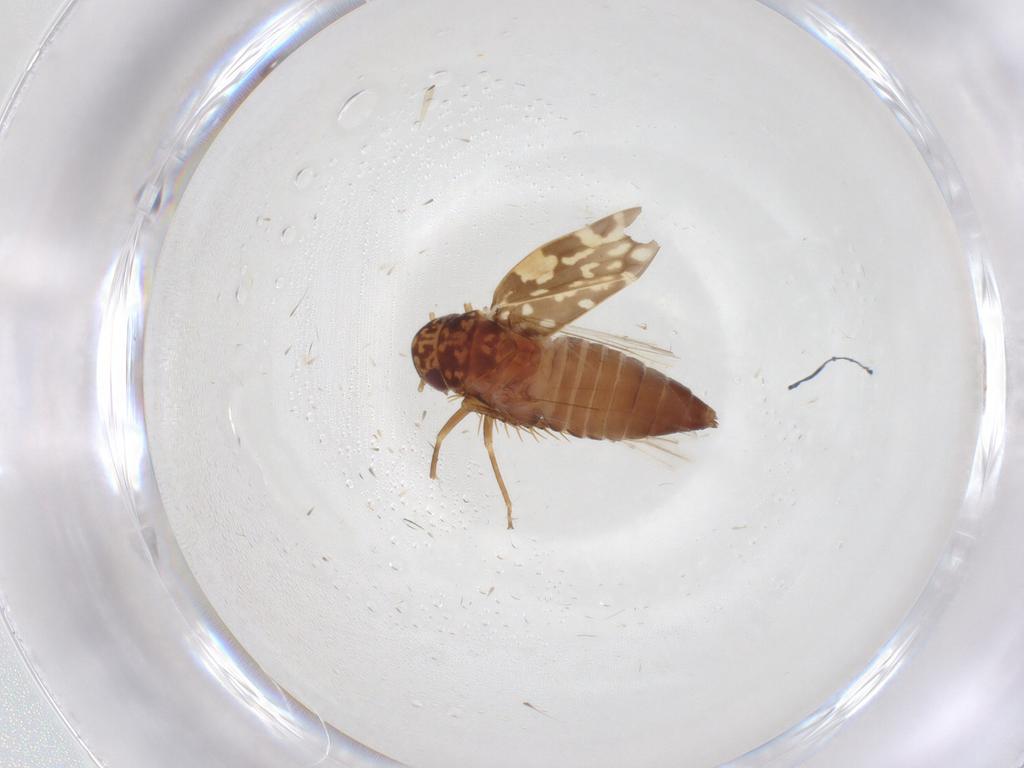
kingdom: Animalia
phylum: Arthropoda
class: Insecta
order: Hemiptera
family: Cicadellidae
